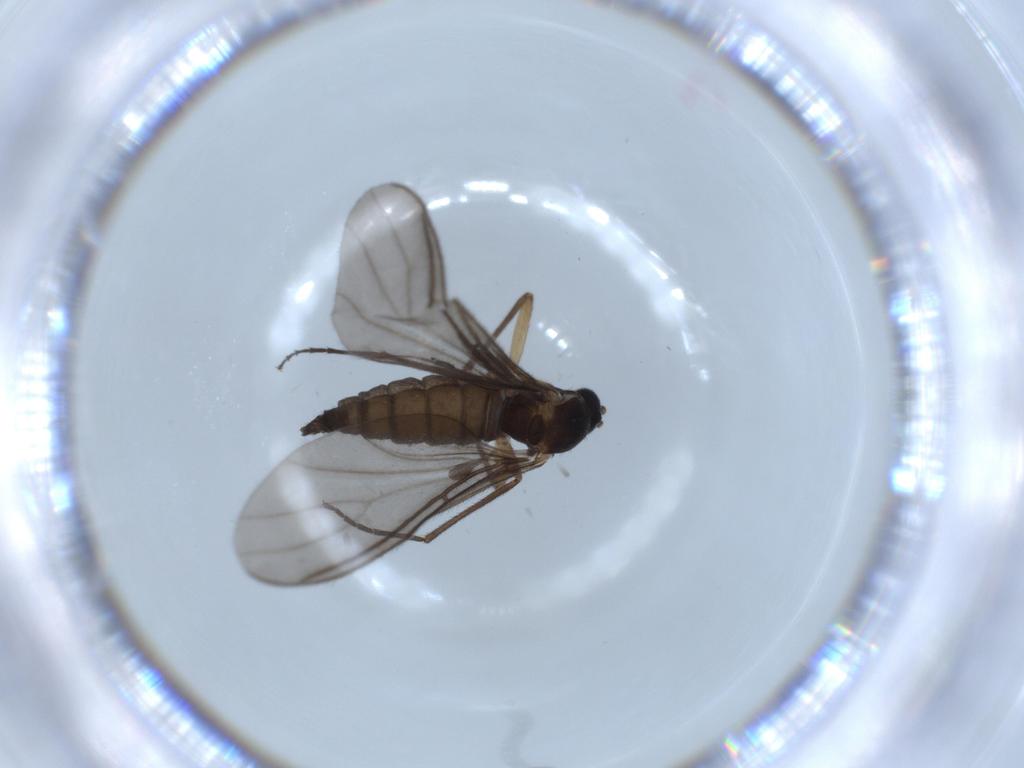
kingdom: Animalia
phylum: Arthropoda
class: Insecta
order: Diptera
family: Sciaridae
